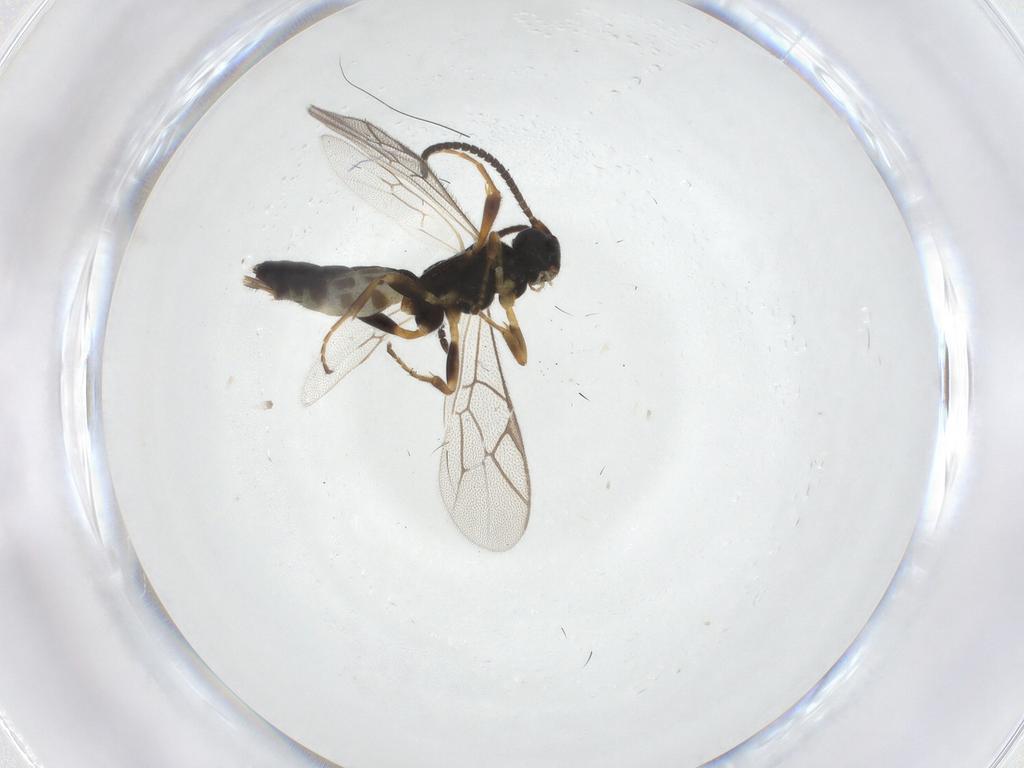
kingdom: Animalia
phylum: Arthropoda
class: Insecta
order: Hymenoptera
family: Ichneumonidae
